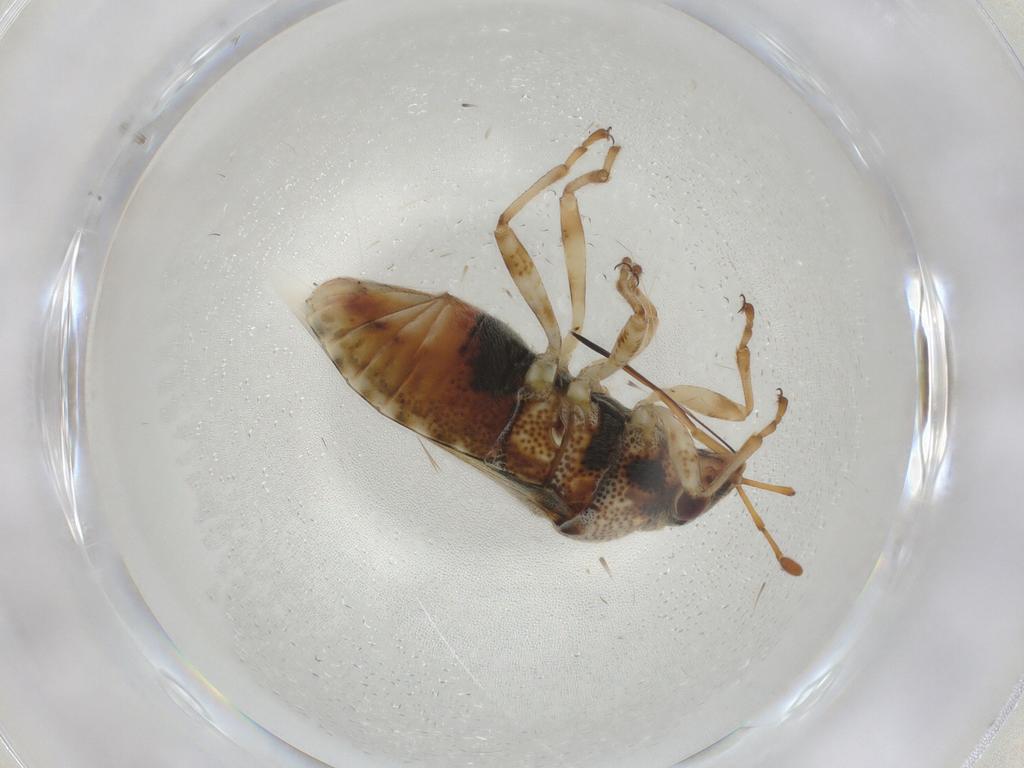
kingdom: Animalia
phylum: Arthropoda
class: Insecta
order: Hemiptera
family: Lygaeidae
